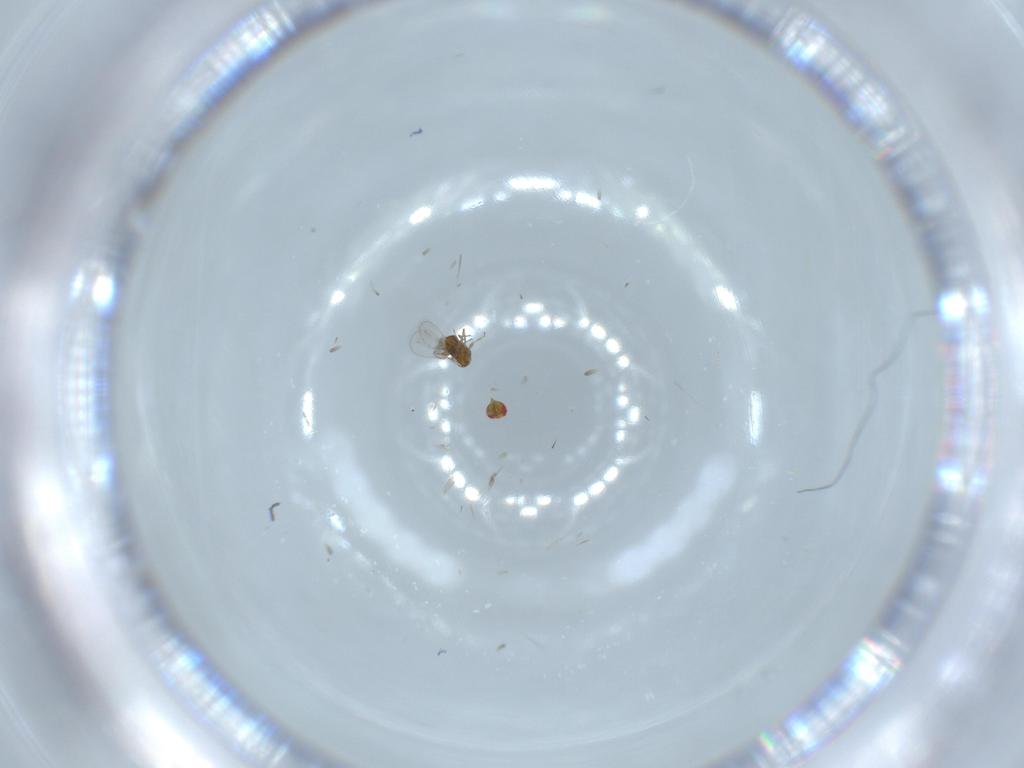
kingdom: Animalia
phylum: Arthropoda
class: Insecta
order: Hymenoptera
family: Trichogrammatidae
